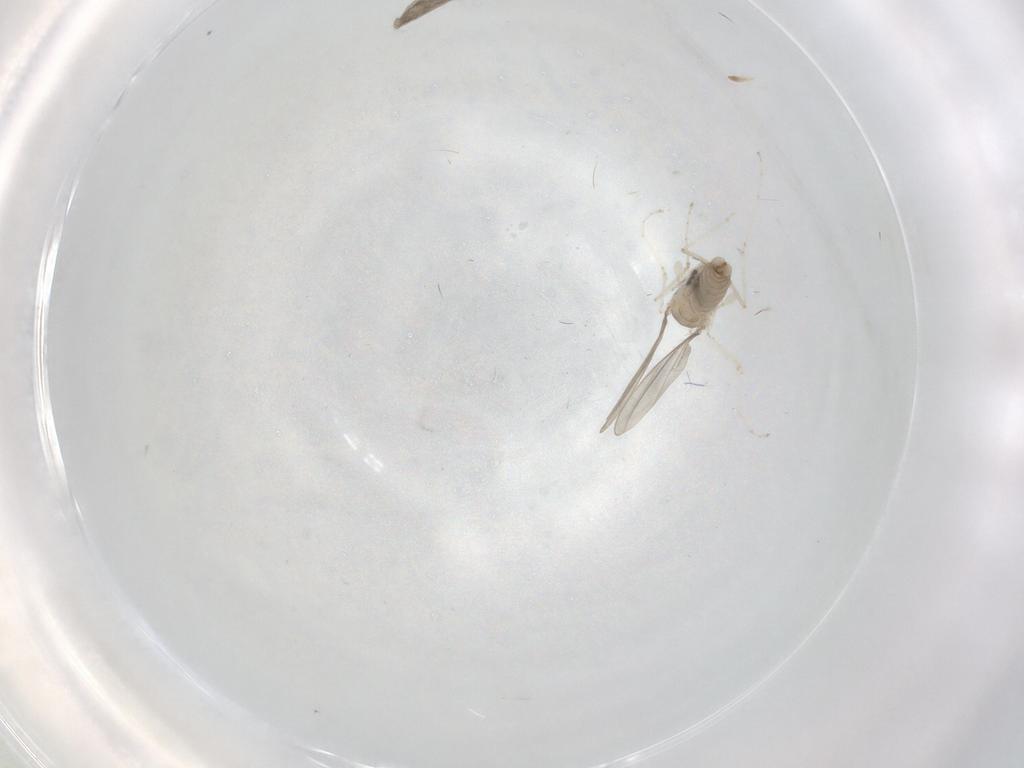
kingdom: Animalia
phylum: Arthropoda
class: Insecta
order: Diptera
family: Cecidomyiidae
